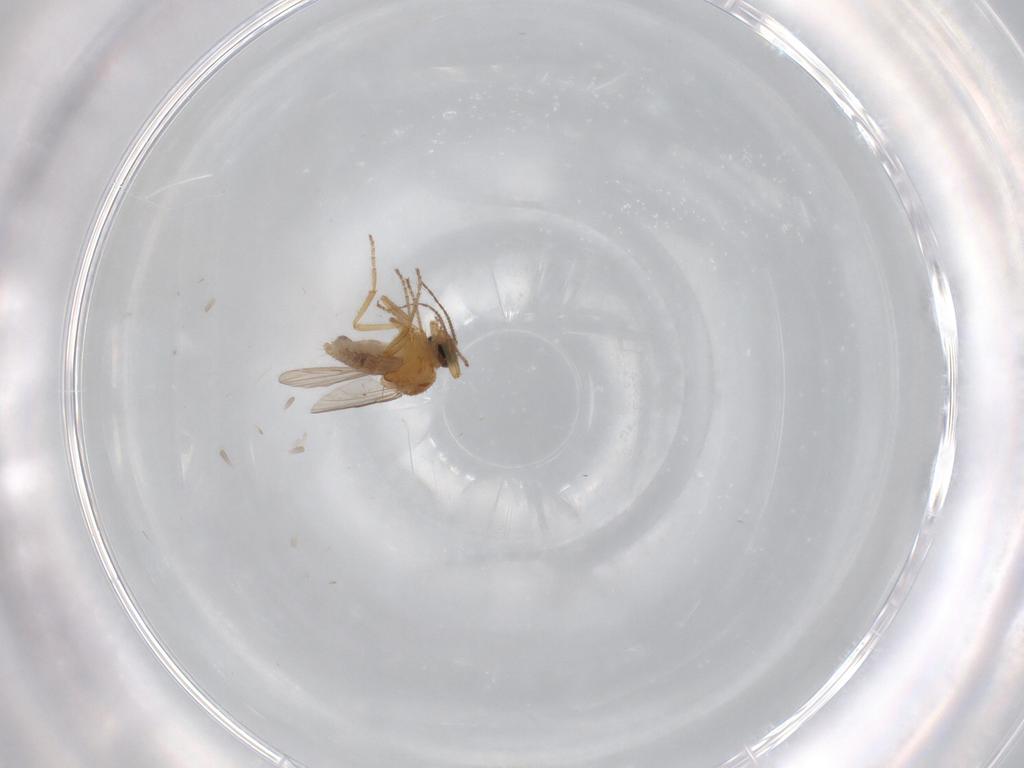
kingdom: Animalia
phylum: Arthropoda
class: Insecta
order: Diptera
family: Ceratopogonidae
